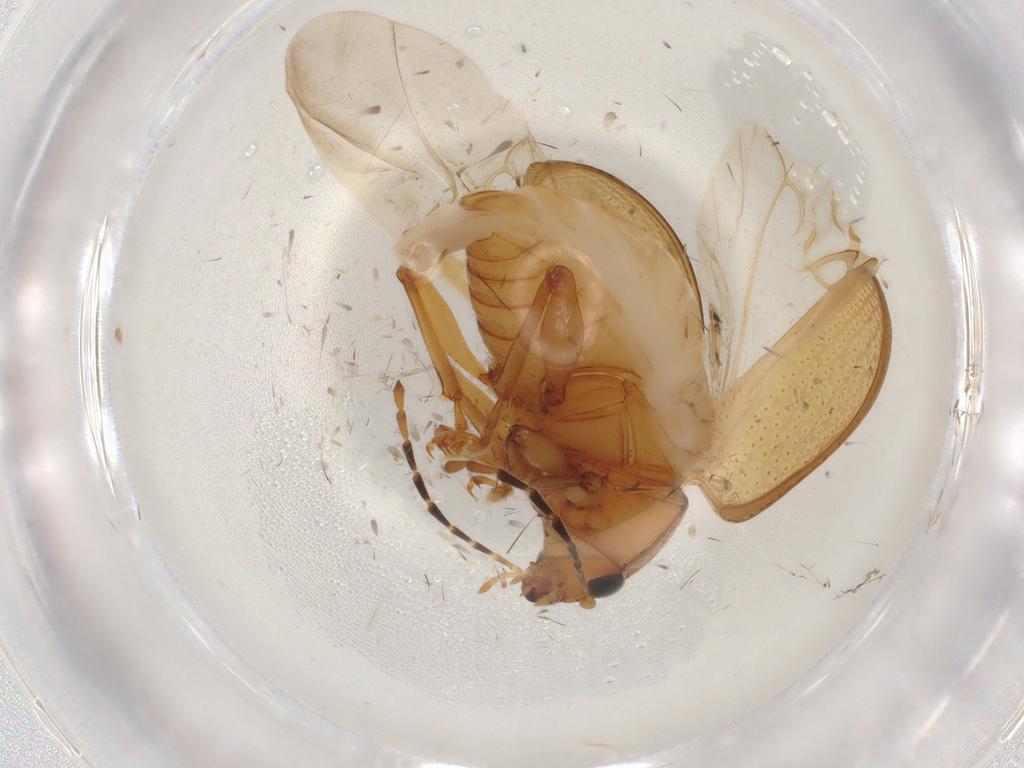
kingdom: Animalia
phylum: Arthropoda
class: Insecta
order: Coleoptera
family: Chrysomelidae
